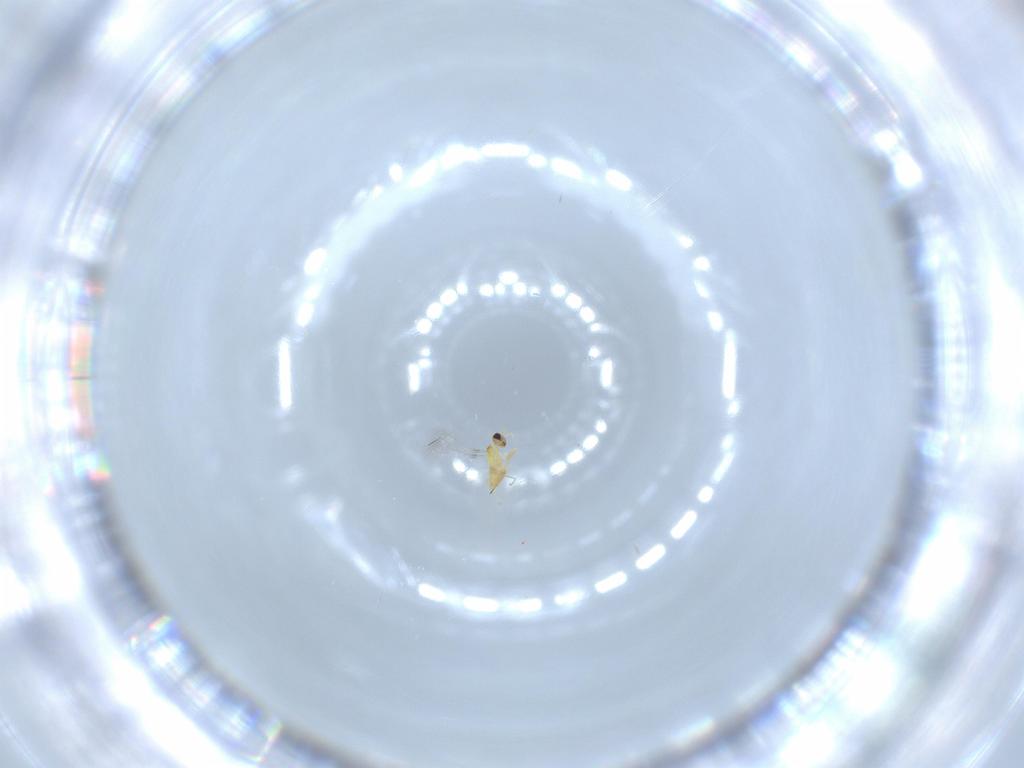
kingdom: Animalia
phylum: Arthropoda
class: Insecta
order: Hymenoptera
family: Mymaridae
